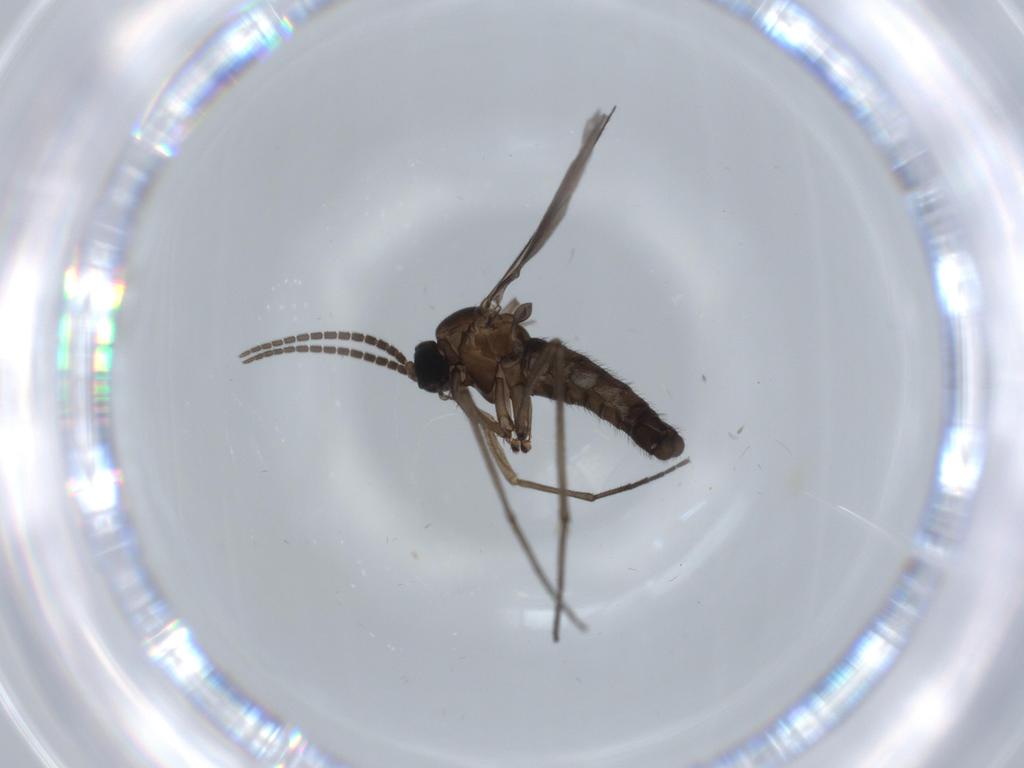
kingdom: Animalia
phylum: Arthropoda
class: Insecta
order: Diptera
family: Sciaridae
